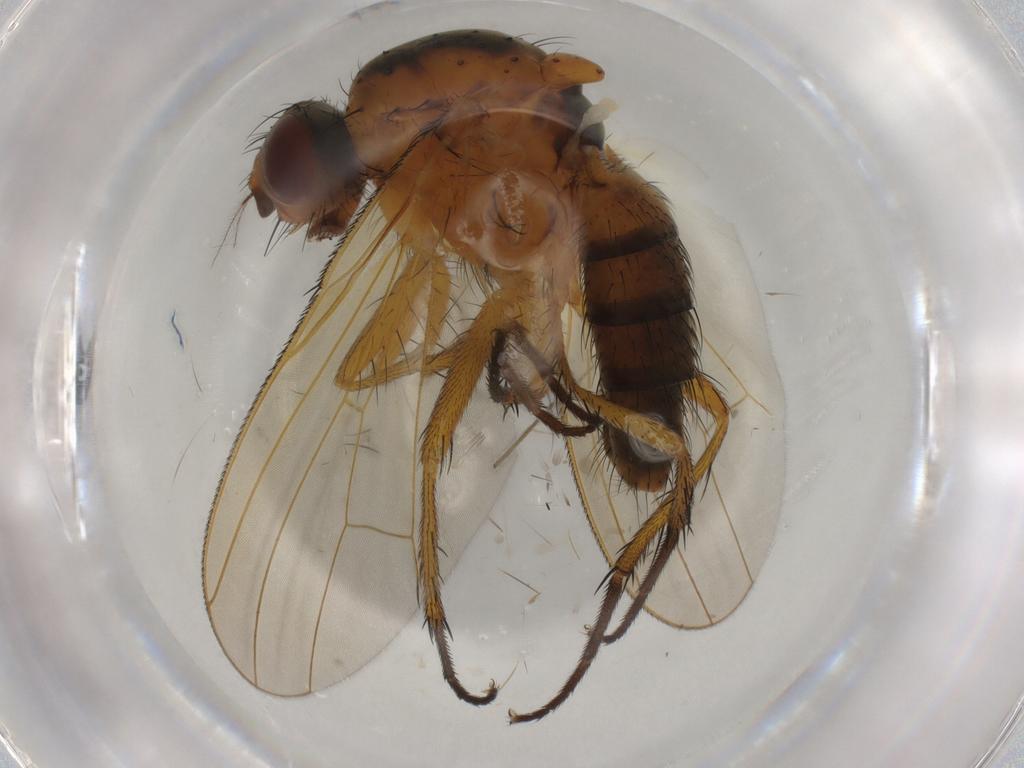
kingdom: Animalia
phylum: Arthropoda
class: Insecta
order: Diptera
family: Anthomyiidae
